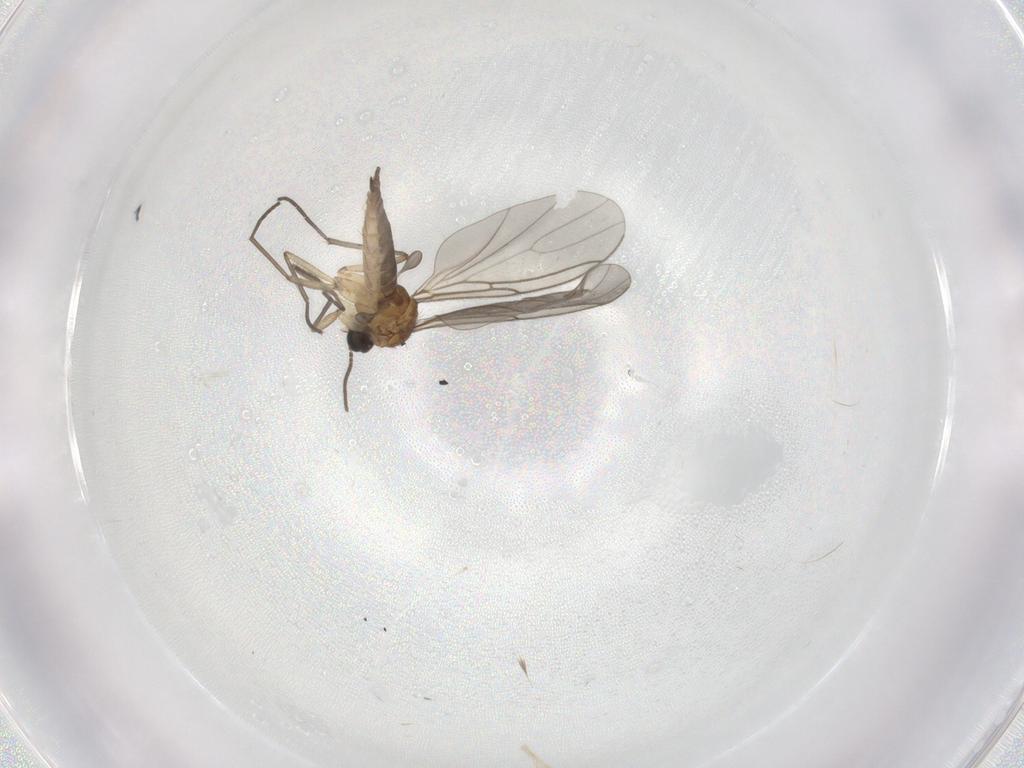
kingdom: Animalia
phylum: Arthropoda
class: Insecta
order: Diptera
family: Sciaridae
